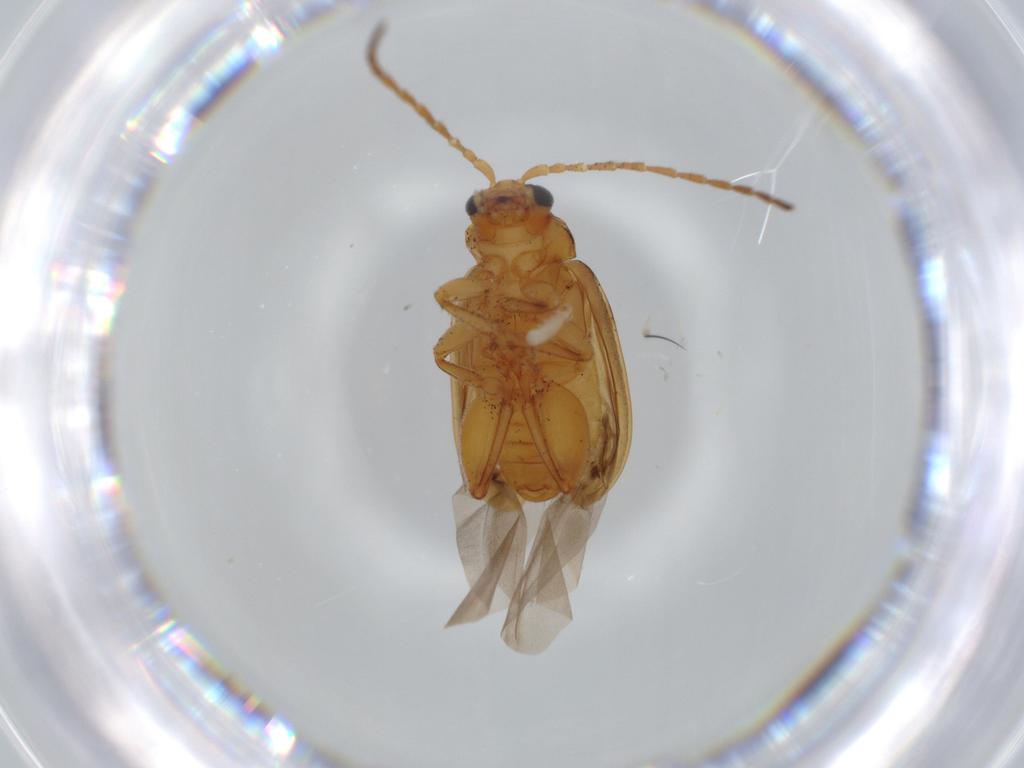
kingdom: Animalia
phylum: Arthropoda
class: Insecta
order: Coleoptera
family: Chrysomelidae
